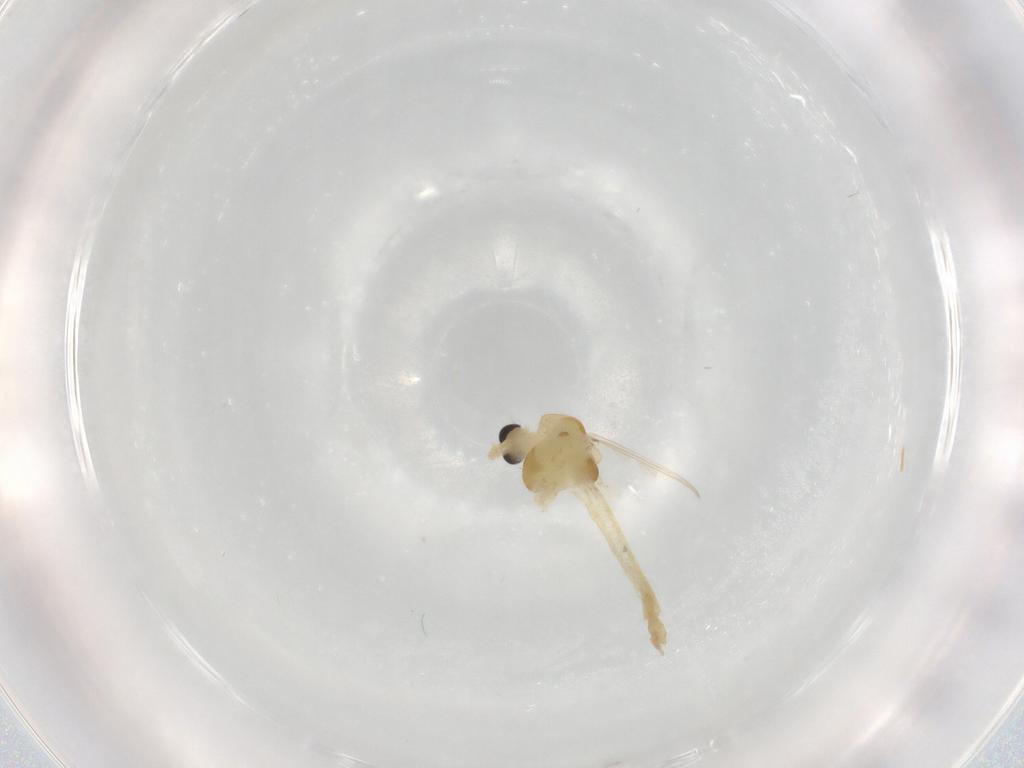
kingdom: Animalia
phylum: Arthropoda
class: Insecta
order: Diptera
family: Chironomidae
